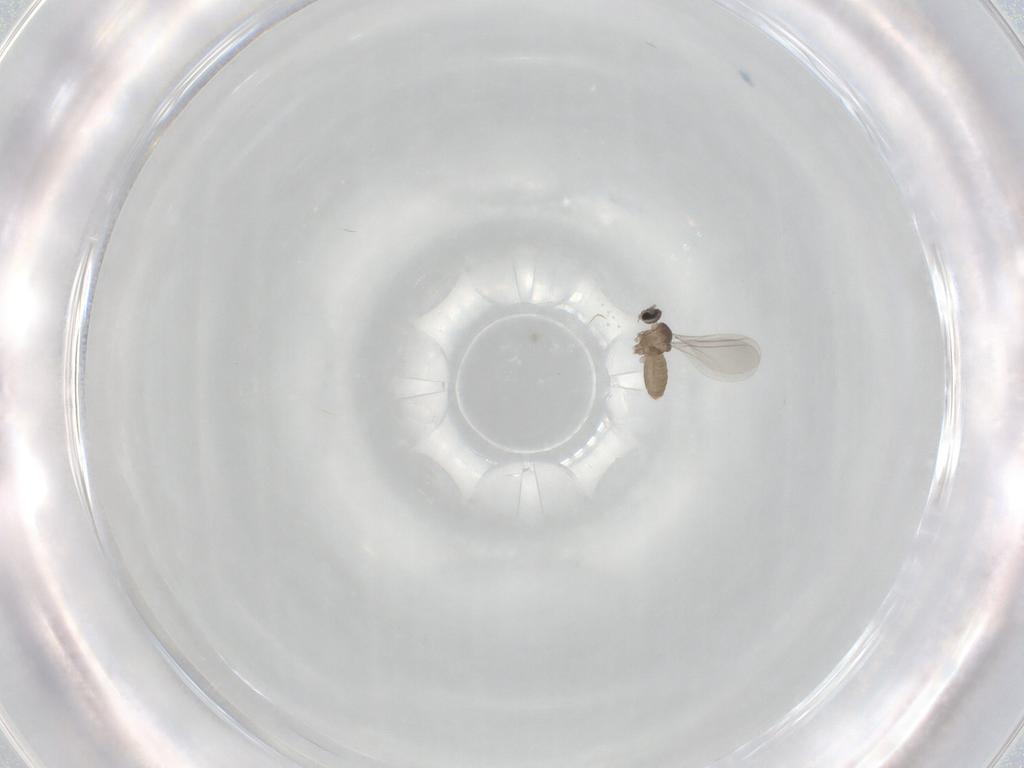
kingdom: Animalia
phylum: Arthropoda
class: Insecta
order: Diptera
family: Cecidomyiidae
